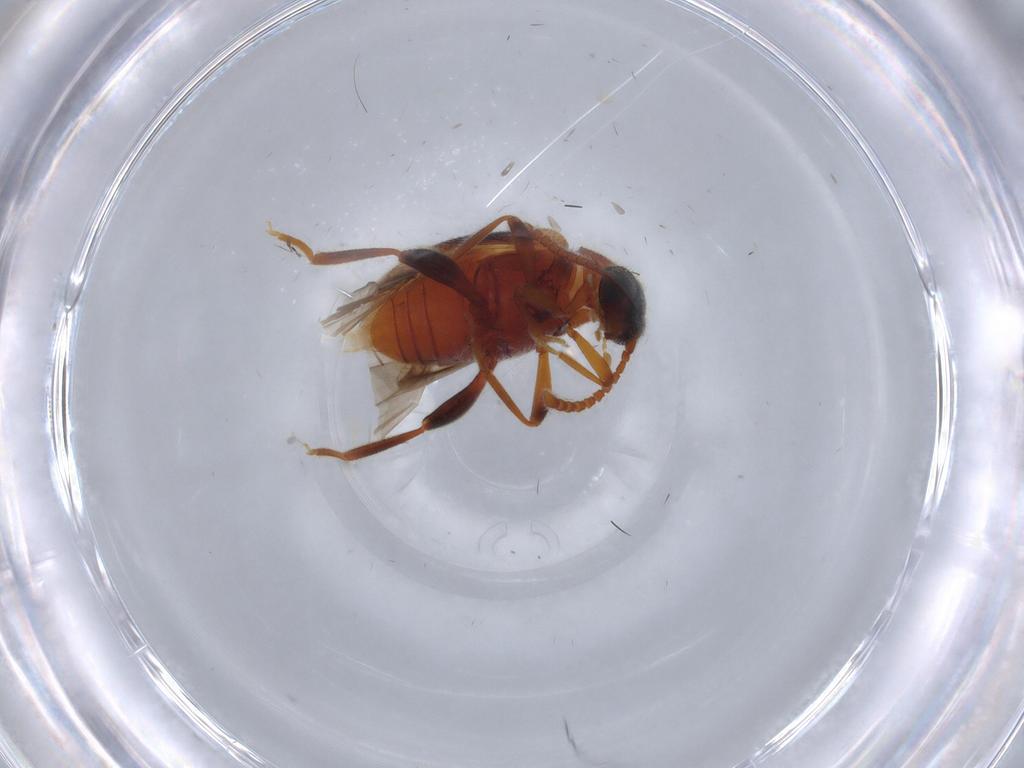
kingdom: Animalia
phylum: Arthropoda
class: Insecta
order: Coleoptera
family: Aderidae
